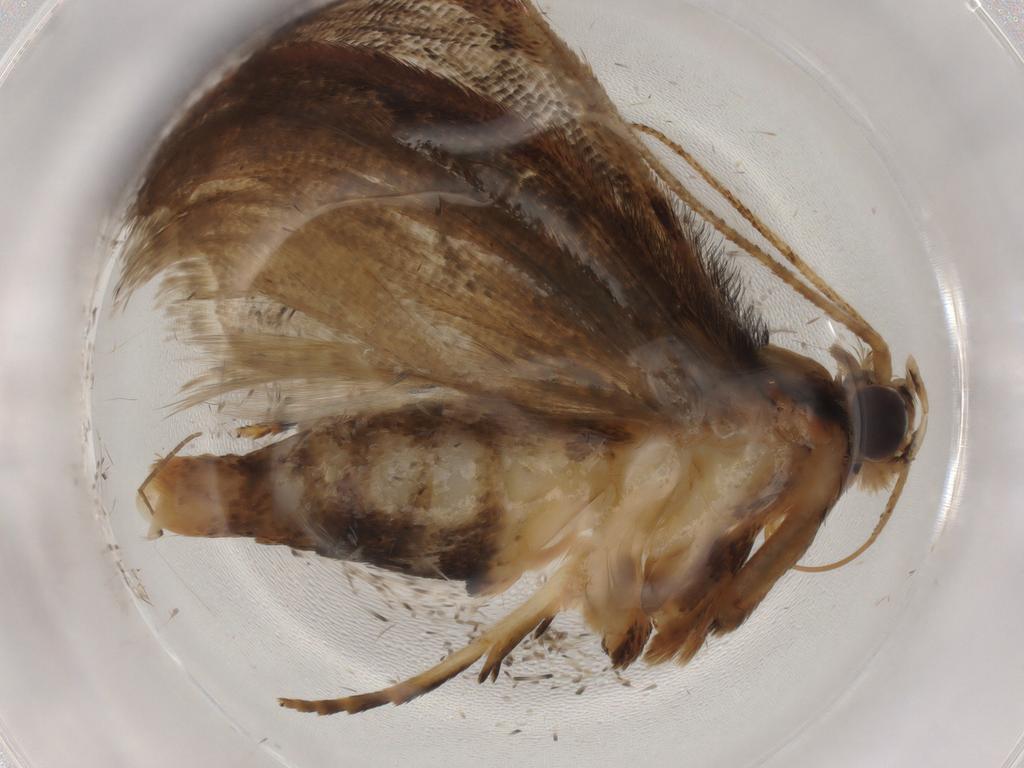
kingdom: Animalia
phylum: Arthropoda
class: Insecta
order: Lepidoptera
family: Erebidae
